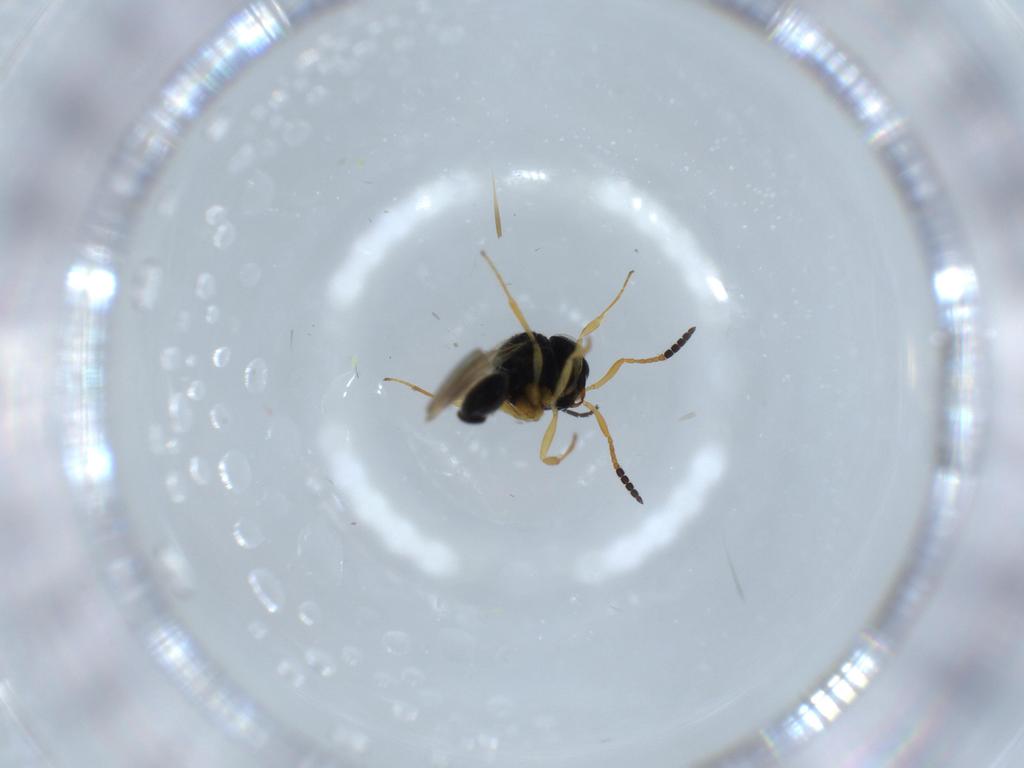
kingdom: Animalia
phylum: Arthropoda
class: Insecta
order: Hymenoptera
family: Scelionidae
